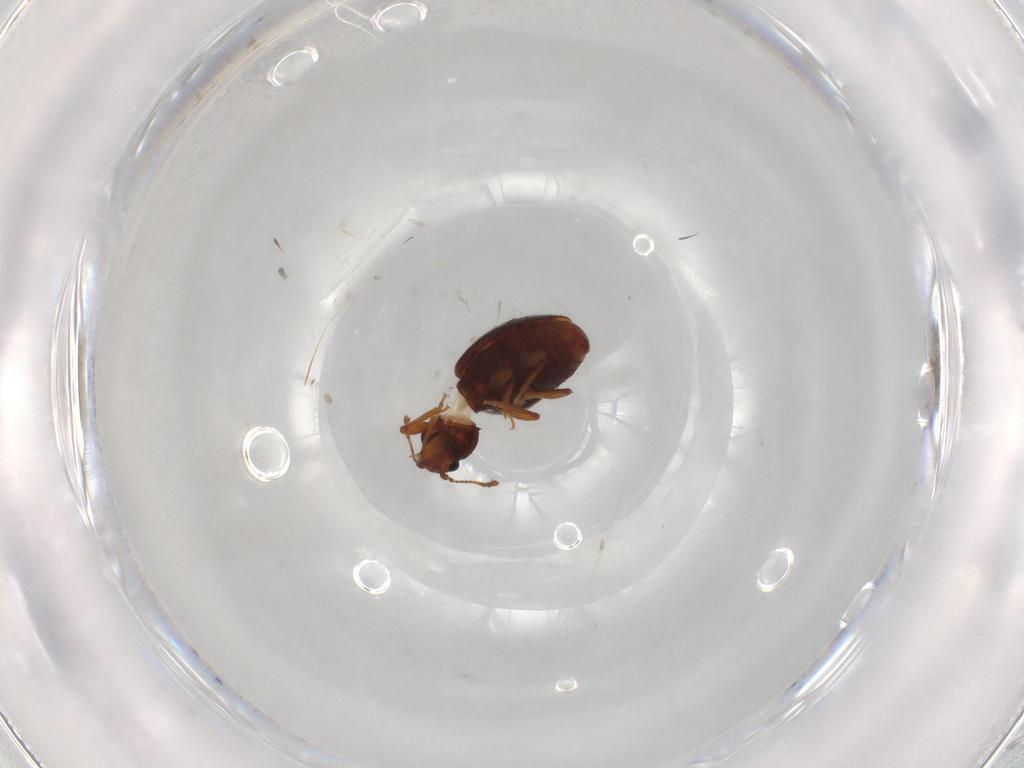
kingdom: Animalia
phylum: Arthropoda
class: Insecta
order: Coleoptera
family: Latridiidae
